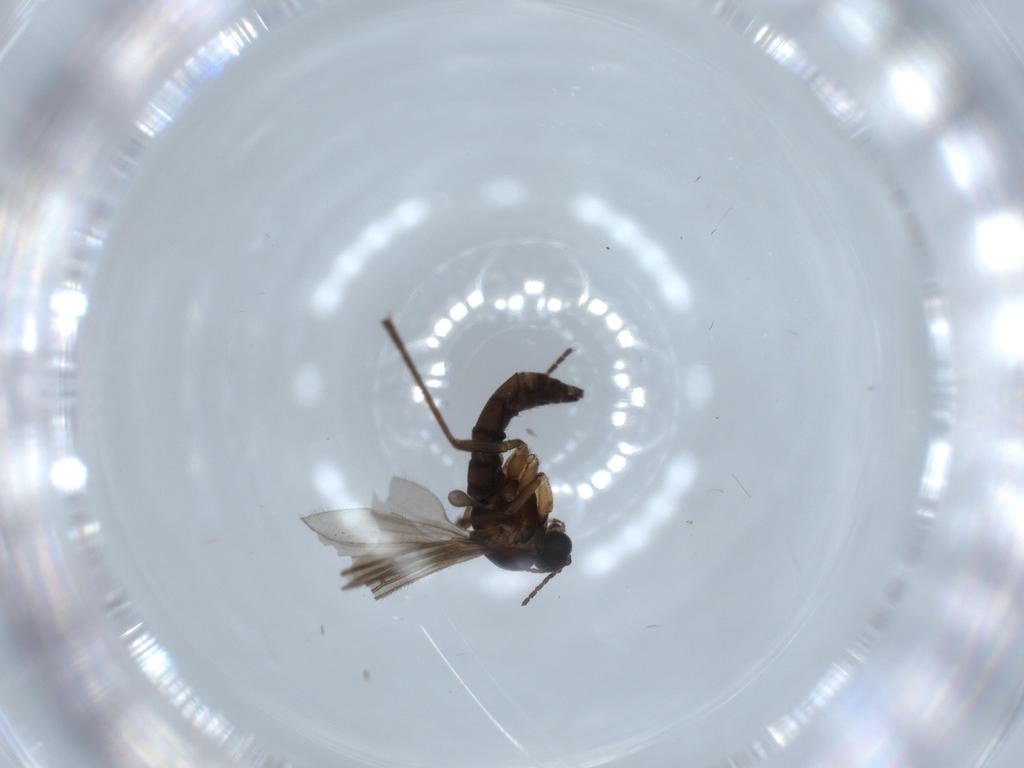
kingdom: Animalia
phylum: Arthropoda
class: Insecta
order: Diptera
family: Sciaridae
